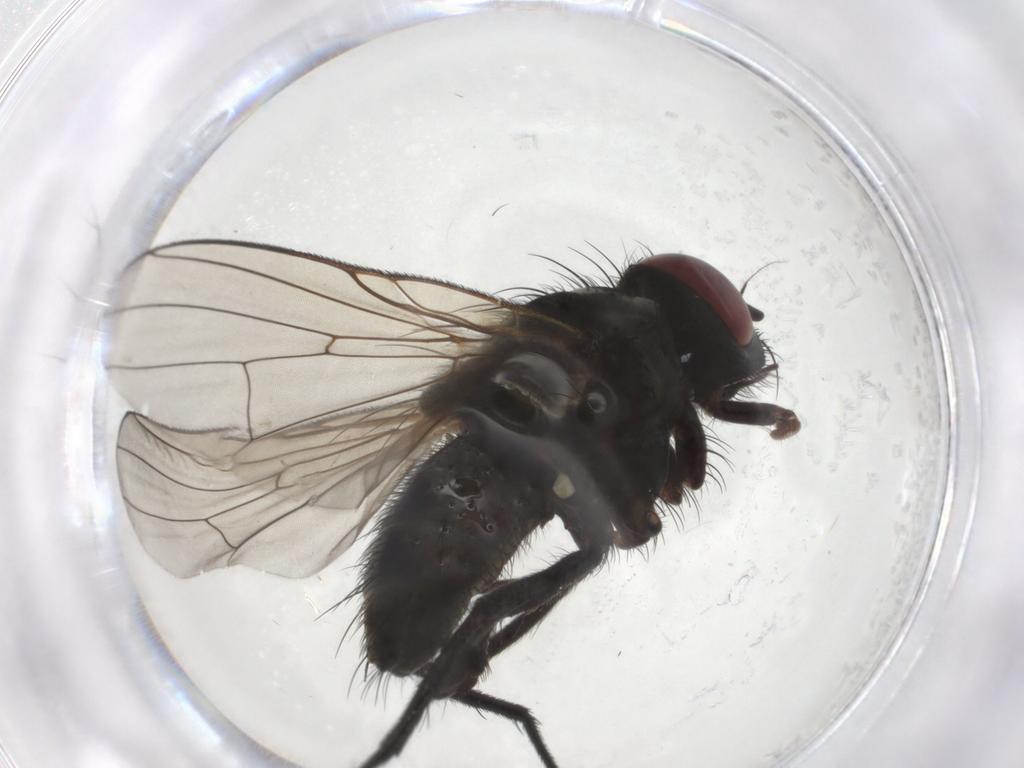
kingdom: Animalia
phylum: Arthropoda
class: Insecta
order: Diptera
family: Muscidae
